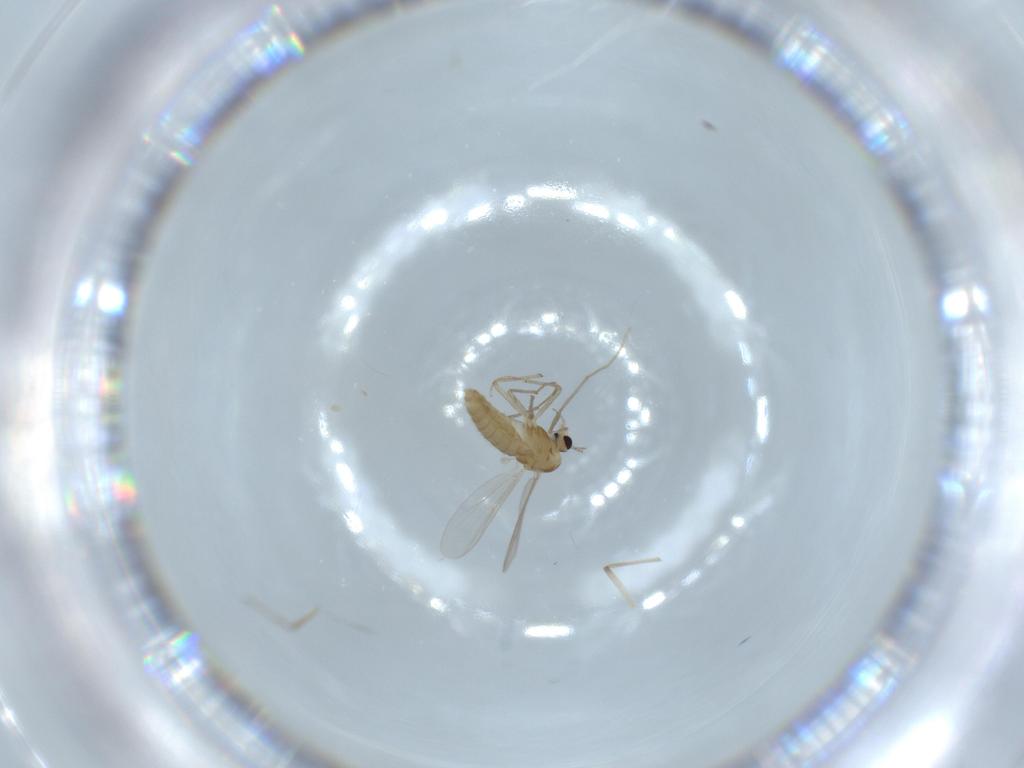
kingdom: Animalia
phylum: Arthropoda
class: Insecta
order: Diptera
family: Chironomidae
